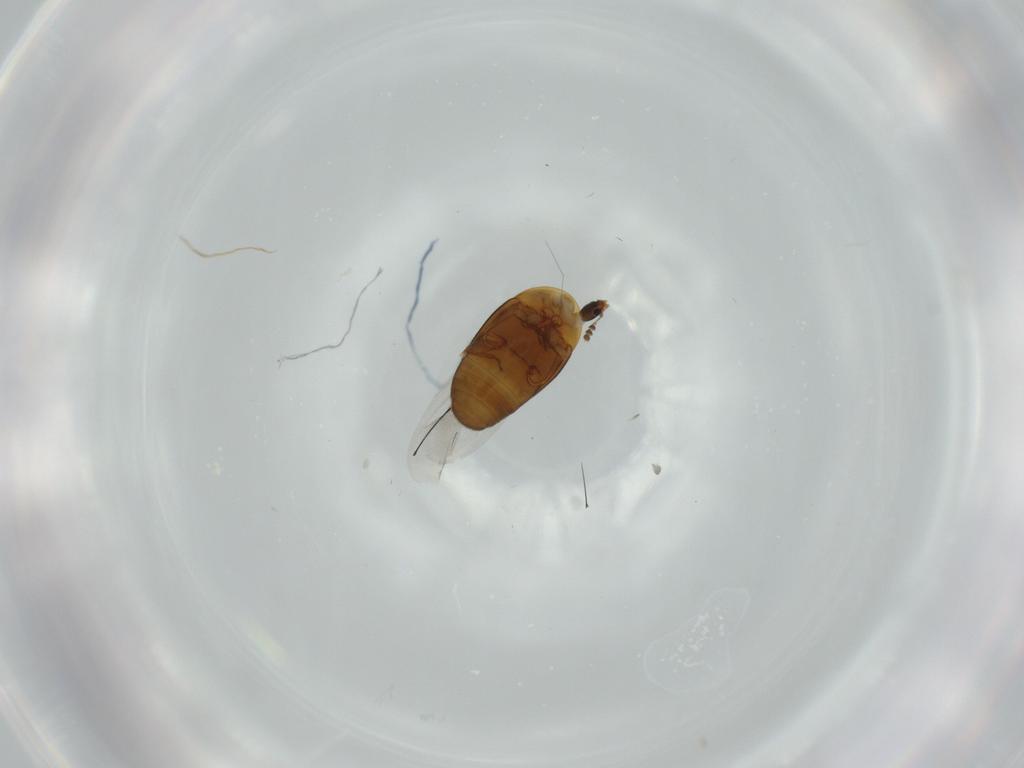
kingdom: Animalia
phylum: Arthropoda
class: Insecta
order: Coleoptera
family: Corylophidae
